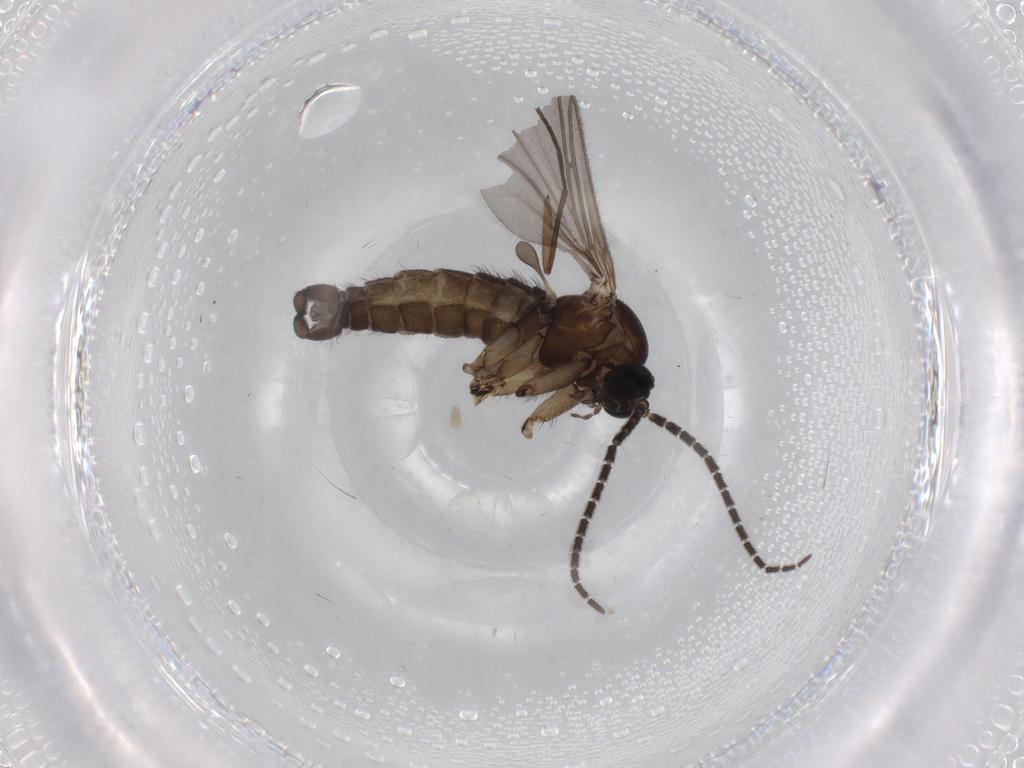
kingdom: Animalia
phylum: Arthropoda
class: Insecta
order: Diptera
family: Sciaridae
